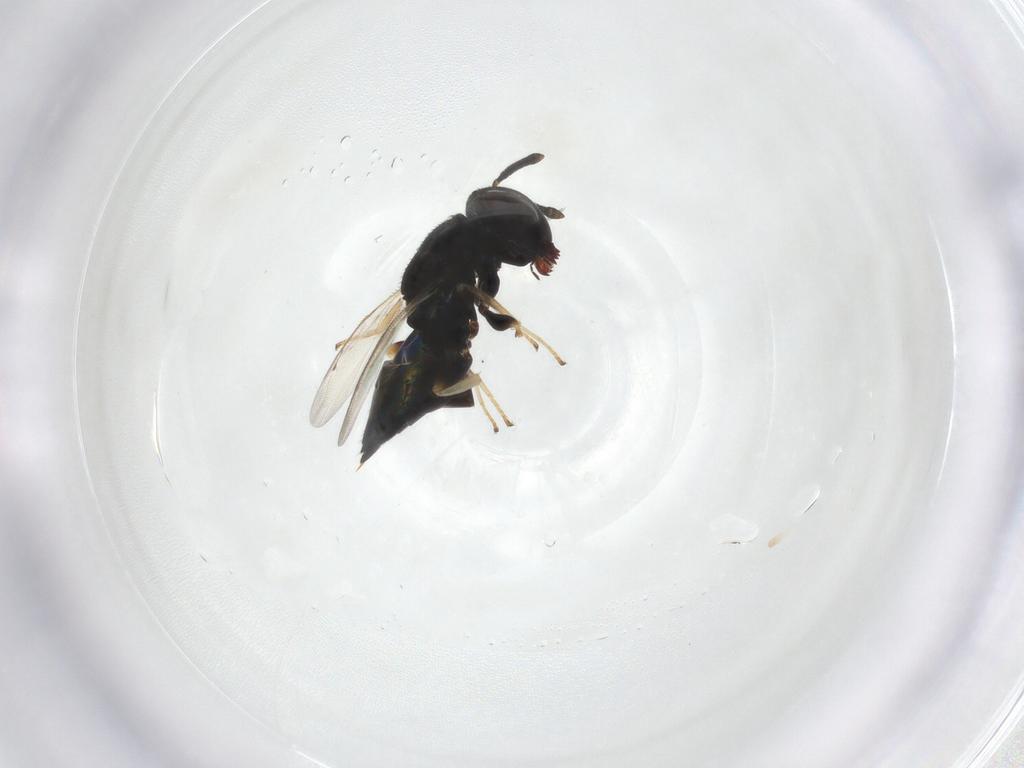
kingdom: Animalia
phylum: Arthropoda
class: Insecta
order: Hymenoptera
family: Pteromalidae
